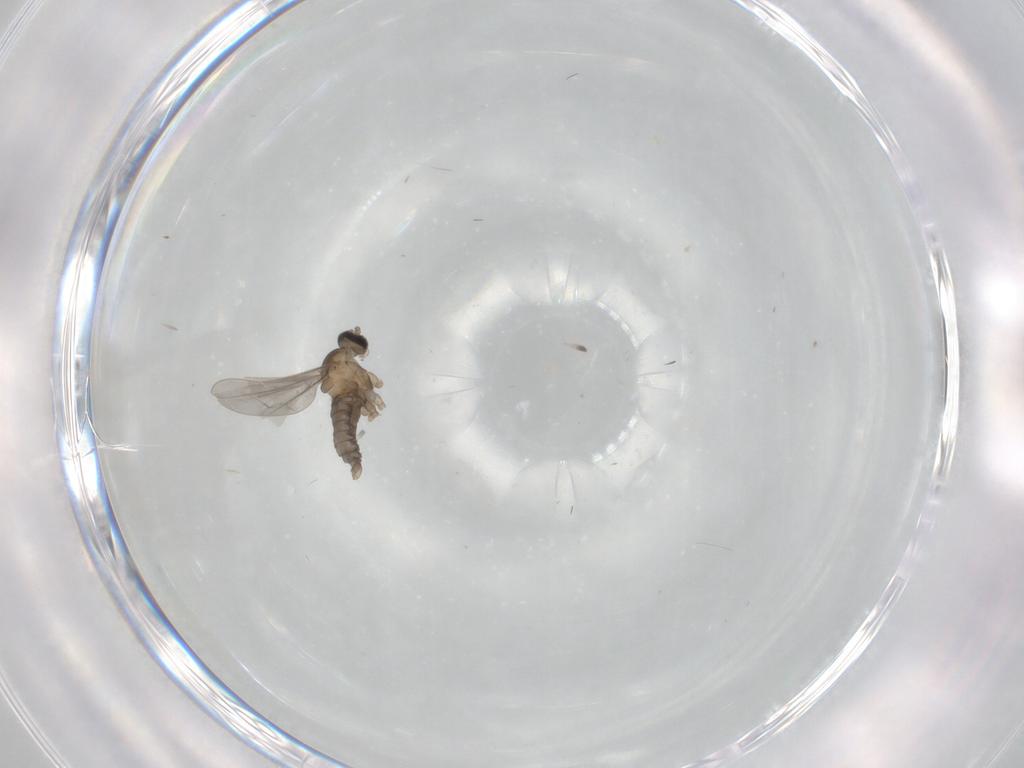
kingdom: Animalia
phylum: Arthropoda
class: Insecta
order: Diptera
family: Cecidomyiidae
